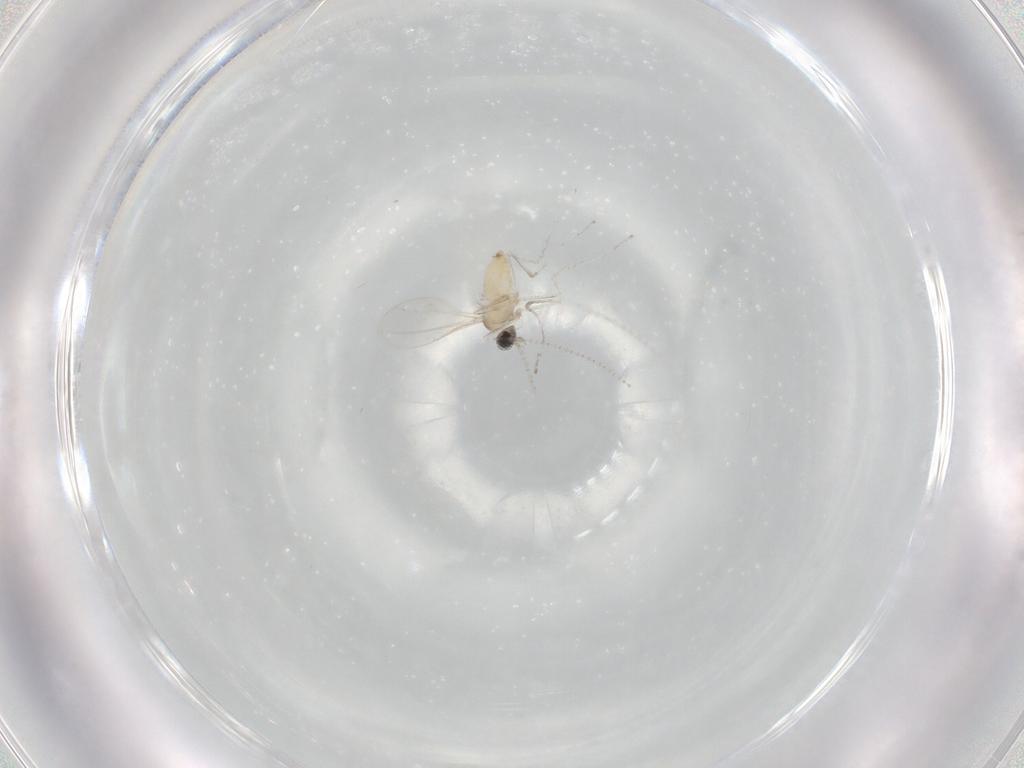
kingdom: Animalia
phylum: Arthropoda
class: Insecta
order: Diptera
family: Cecidomyiidae
